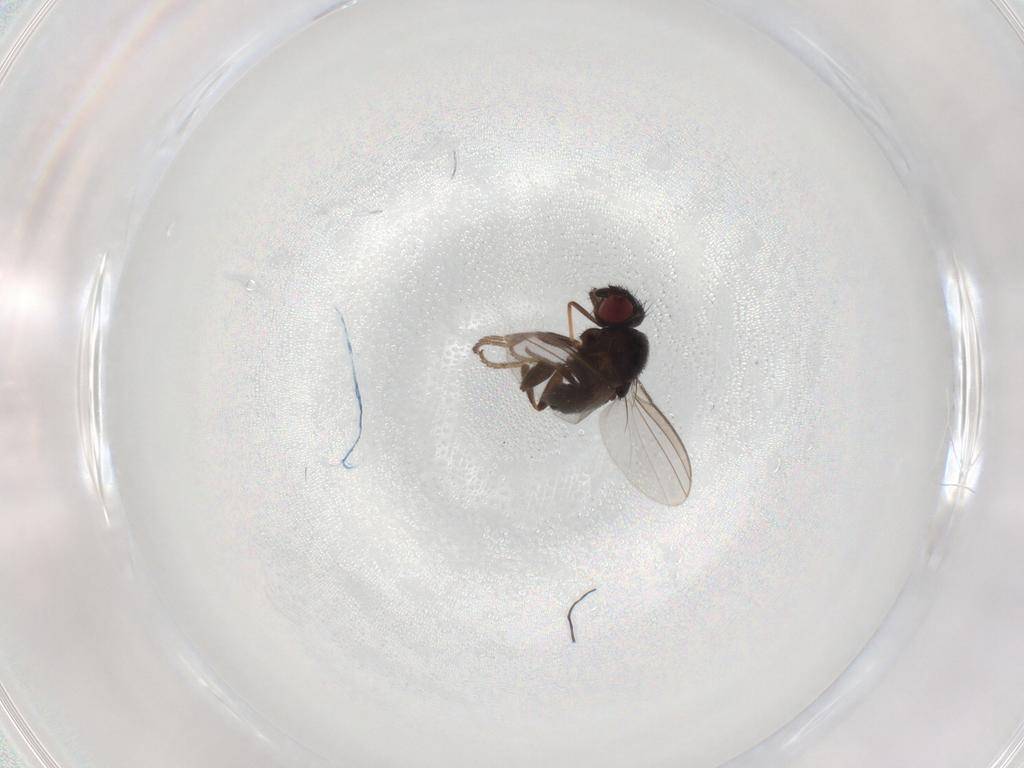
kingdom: Animalia
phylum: Arthropoda
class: Insecta
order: Diptera
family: Milichiidae
